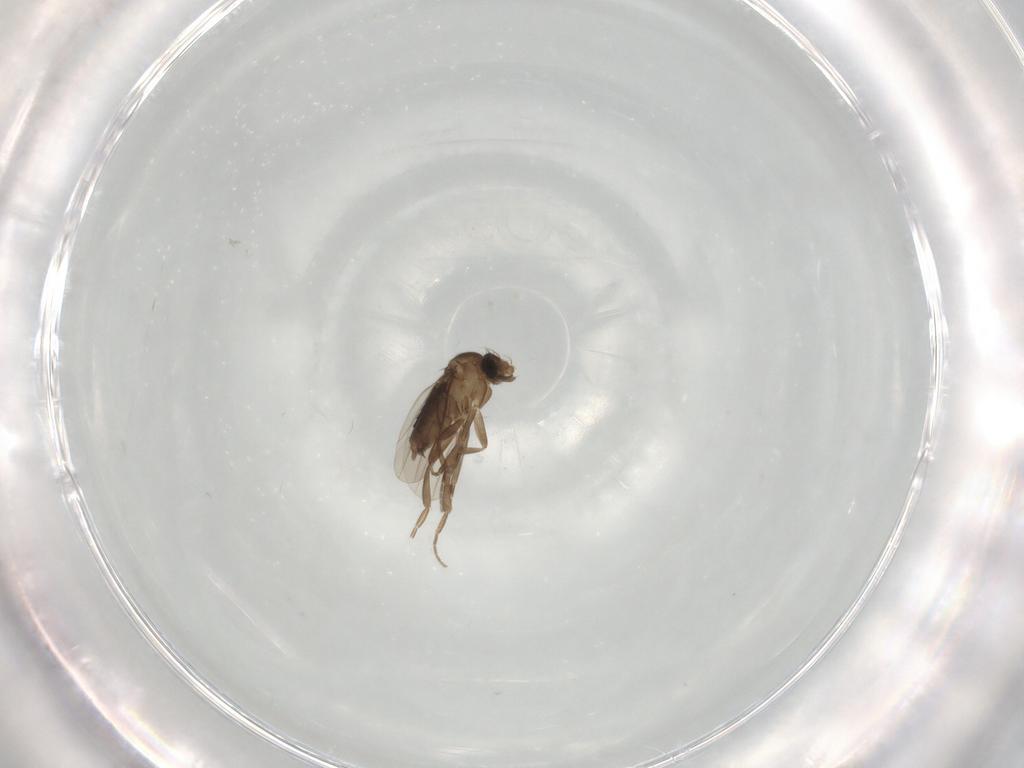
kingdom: Animalia
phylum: Arthropoda
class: Insecta
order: Diptera
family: Phoridae
